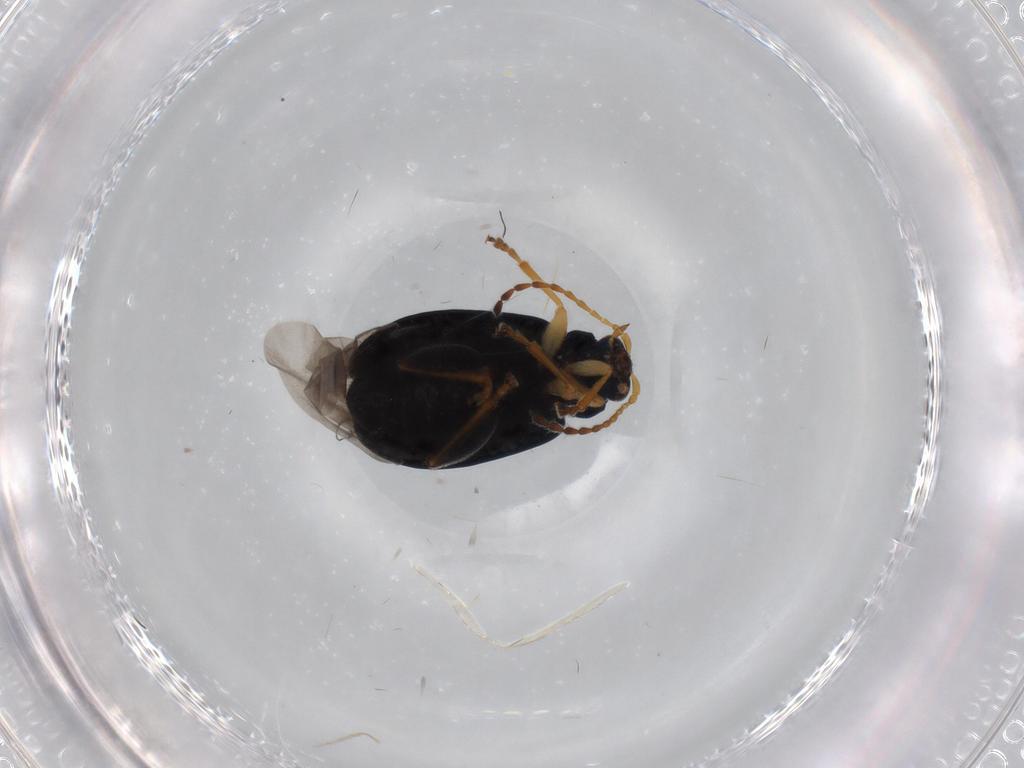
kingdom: Animalia
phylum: Arthropoda
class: Insecta
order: Coleoptera
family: Chrysomelidae
